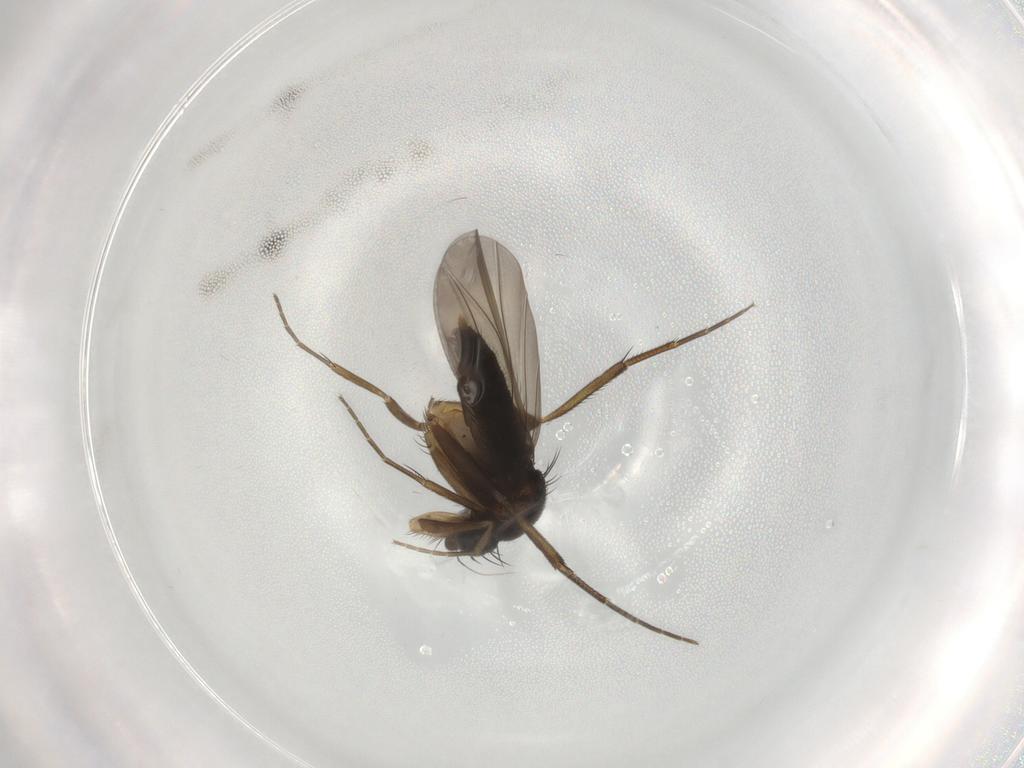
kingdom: Animalia
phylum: Arthropoda
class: Insecta
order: Diptera
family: Phoridae
